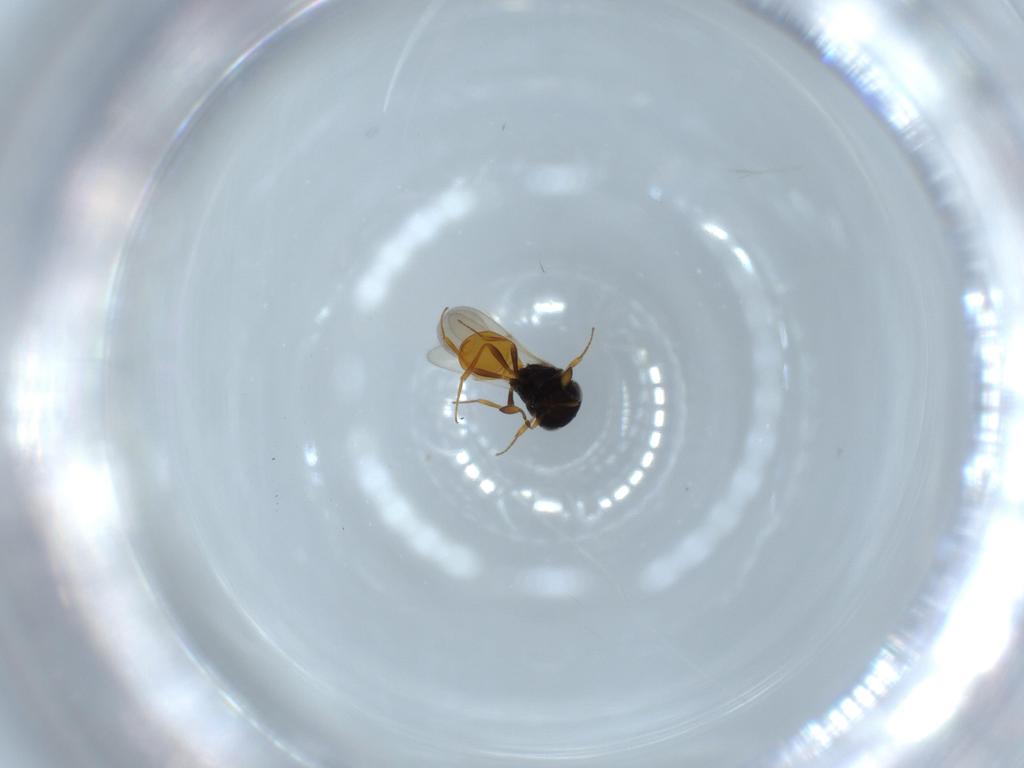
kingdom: Animalia
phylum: Arthropoda
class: Insecta
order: Hymenoptera
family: Scelionidae
